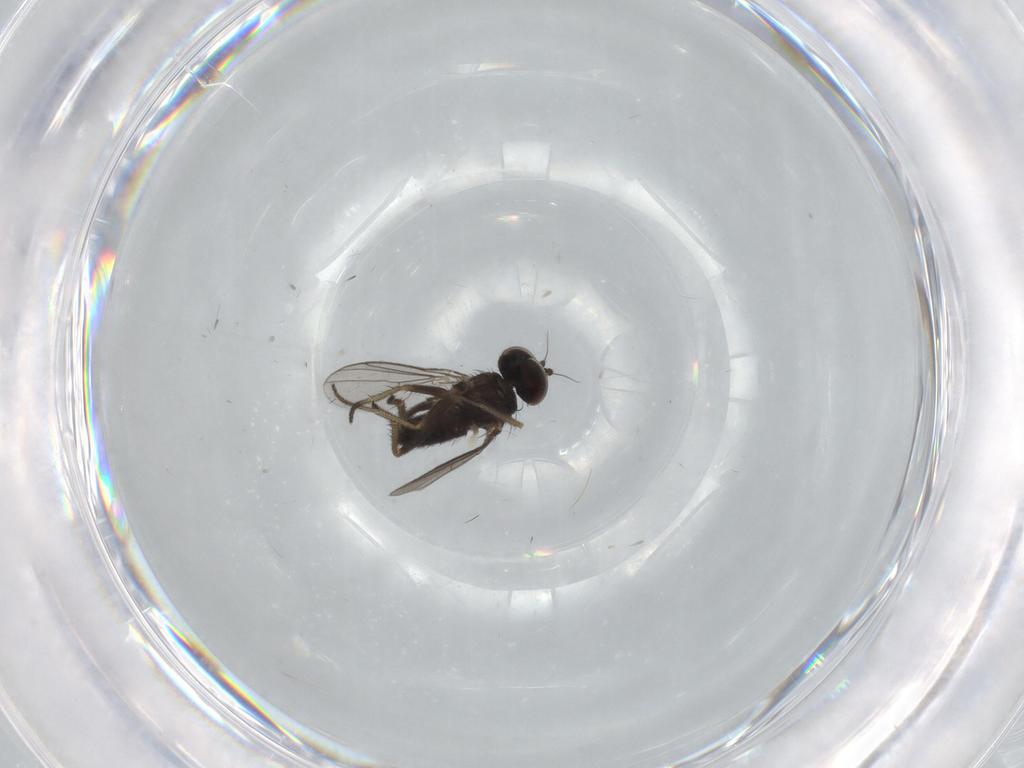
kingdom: Animalia
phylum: Arthropoda
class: Insecta
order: Diptera
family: Dolichopodidae
